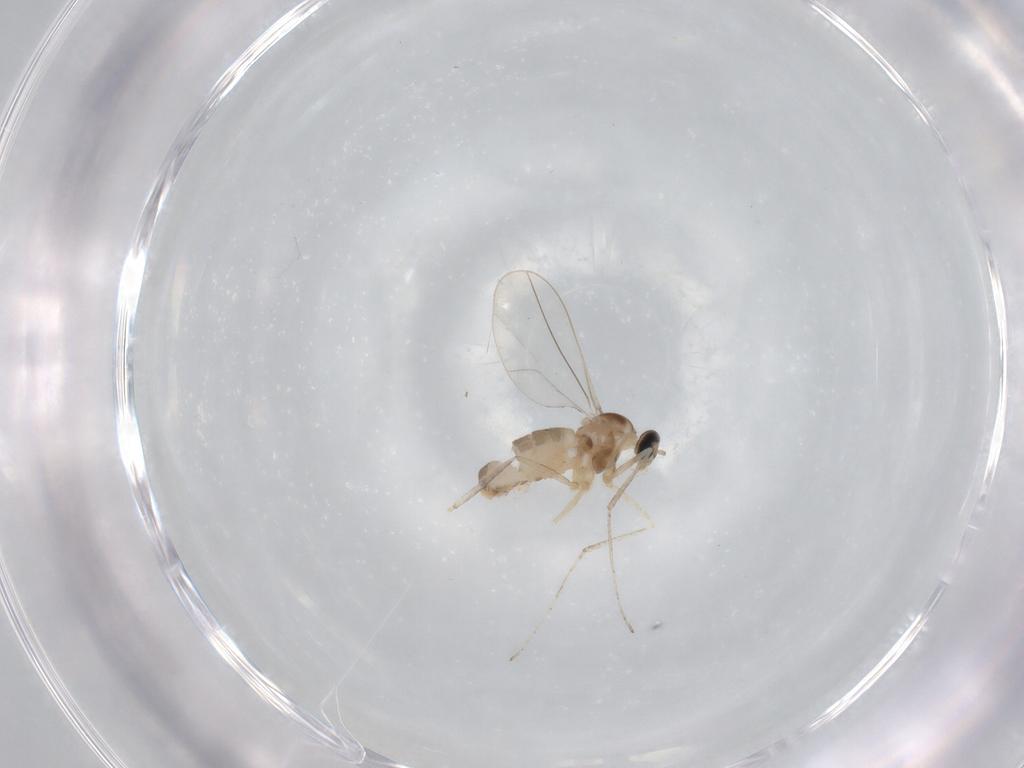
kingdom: Animalia
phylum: Arthropoda
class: Insecta
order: Diptera
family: Cecidomyiidae
